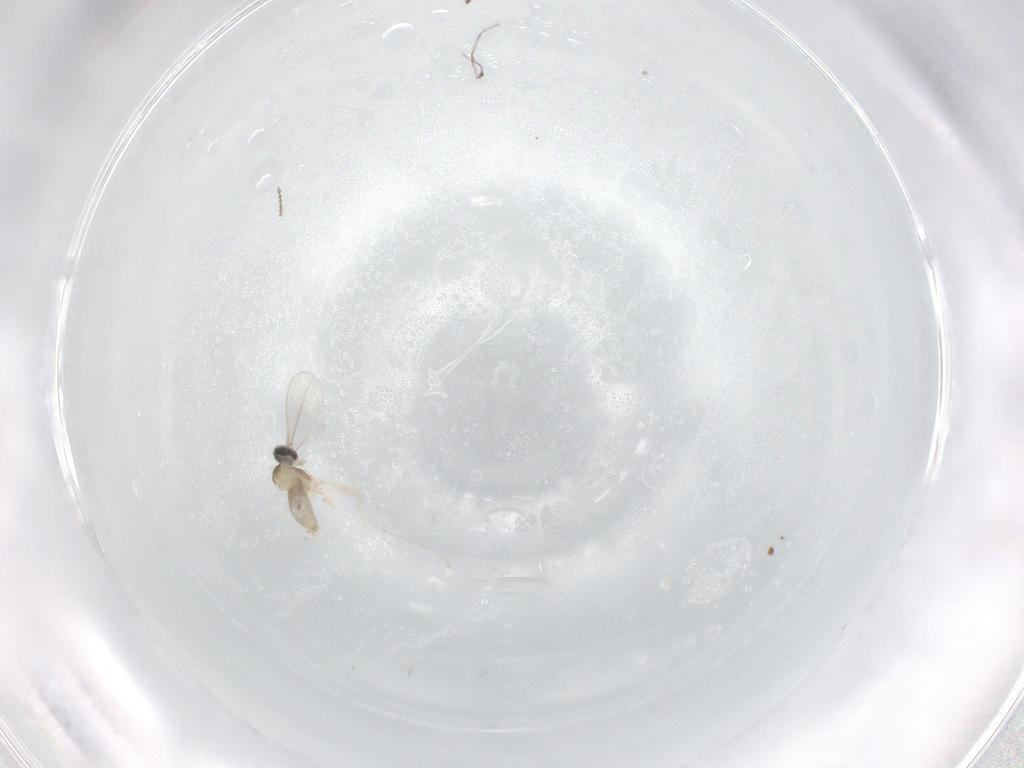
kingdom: Animalia
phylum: Arthropoda
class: Insecta
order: Diptera
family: Cecidomyiidae
